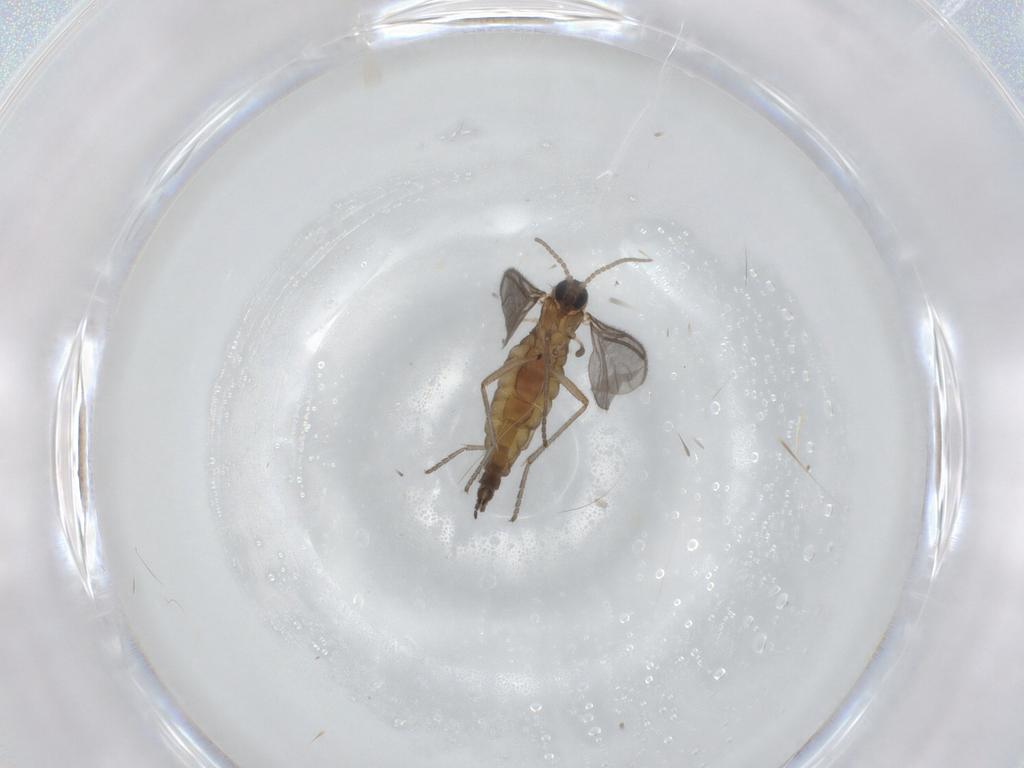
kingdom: Animalia
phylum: Arthropoda
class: Insecta
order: Diptera
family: Sciaridae
